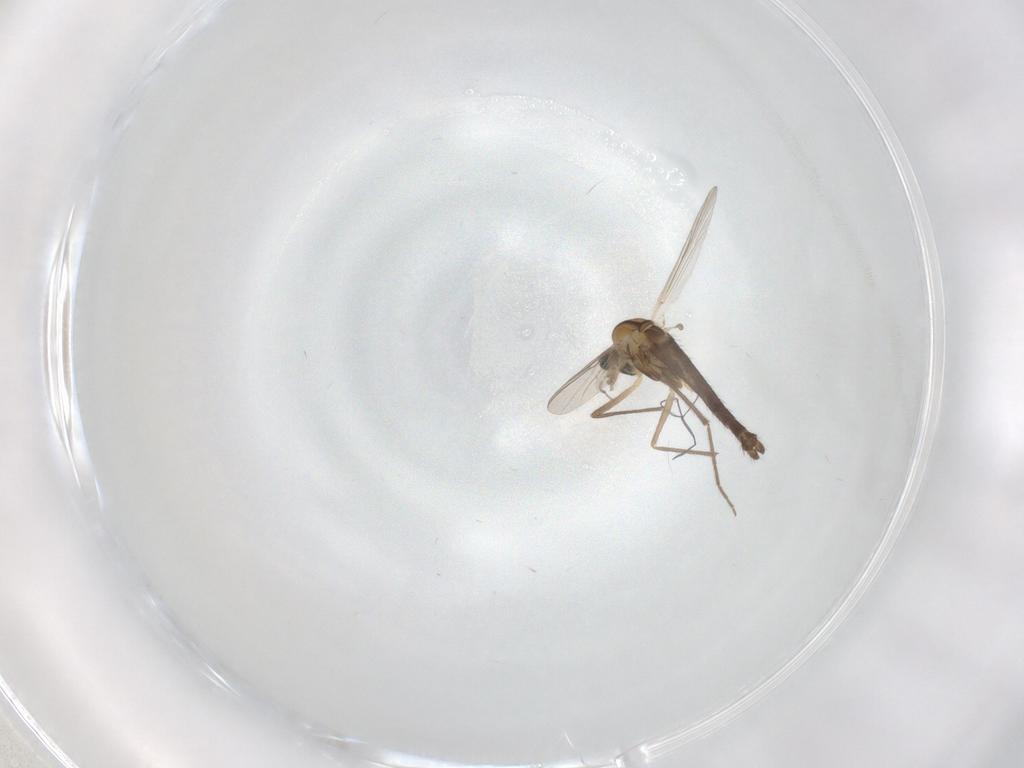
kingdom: Animalia
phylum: Arthropoda
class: Insecta
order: Diptera
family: Chironomidae
